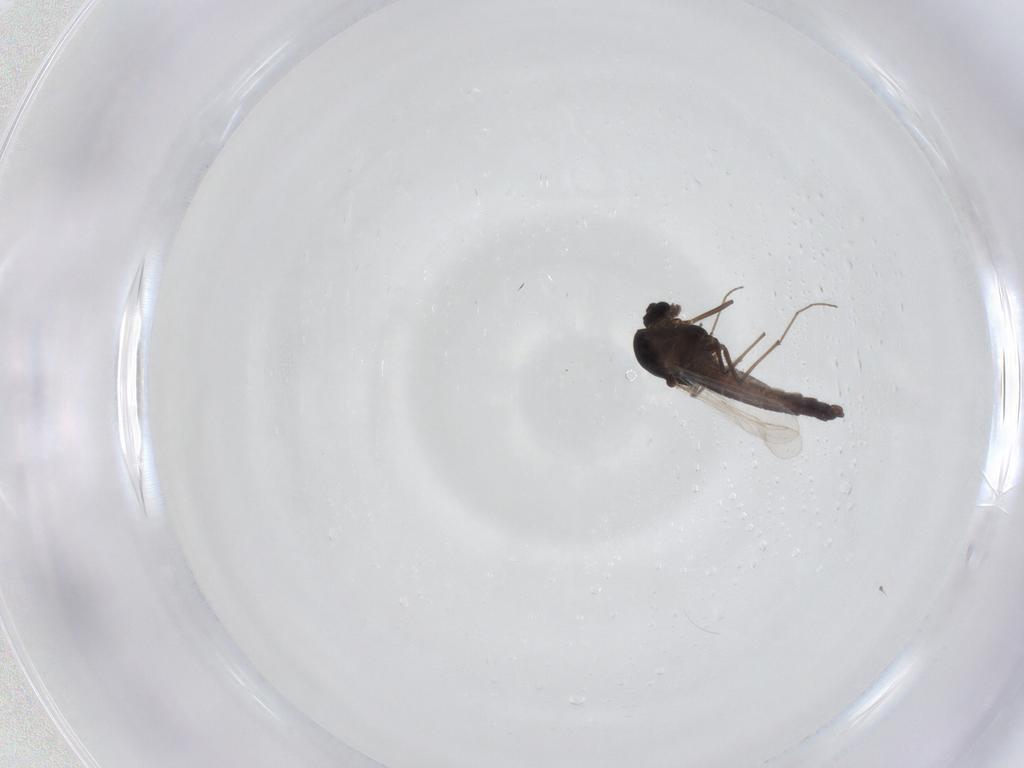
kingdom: Animalia
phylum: Arthropoda
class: Insecta
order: Diptera
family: Chironomidae
